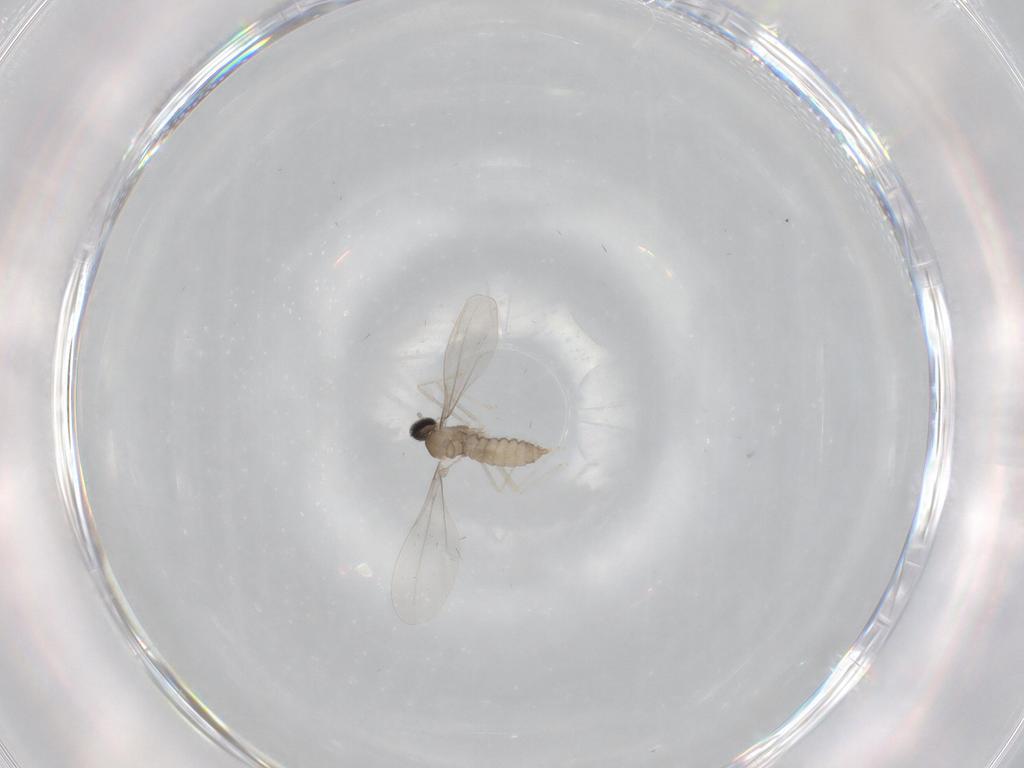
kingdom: Animalia
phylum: Arthropoda
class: Insecta
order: Diptera
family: Cecidomyiidae
